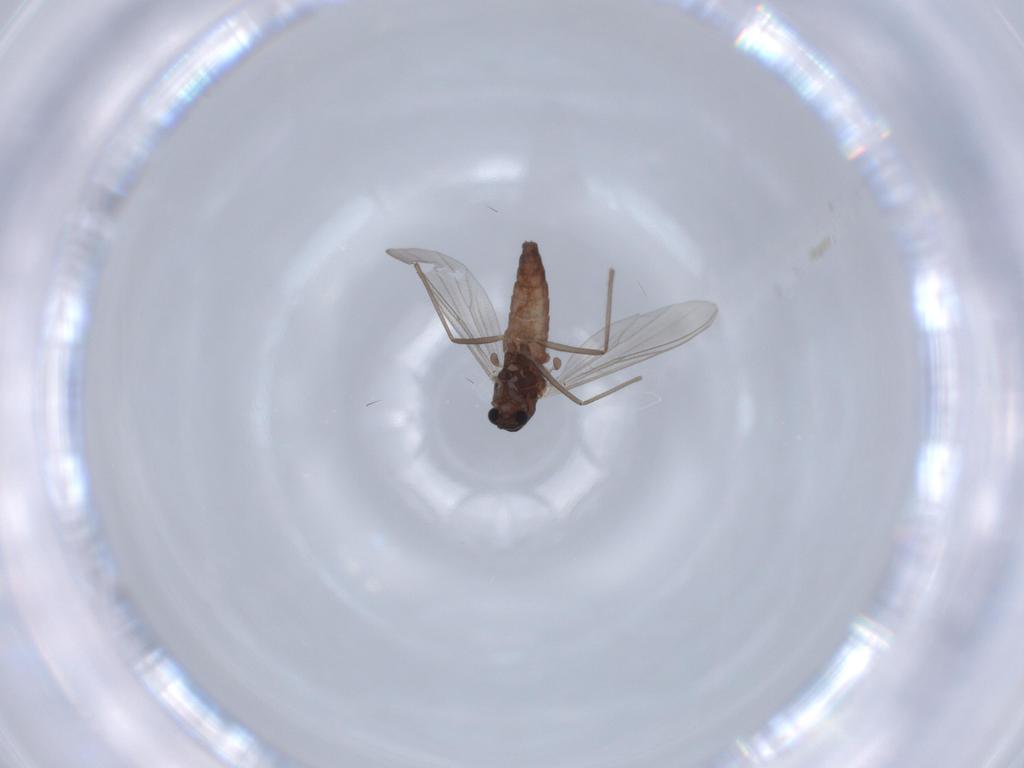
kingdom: Animalia
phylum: Arthropoda
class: Insecta
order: Diptera
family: Chironomidae
